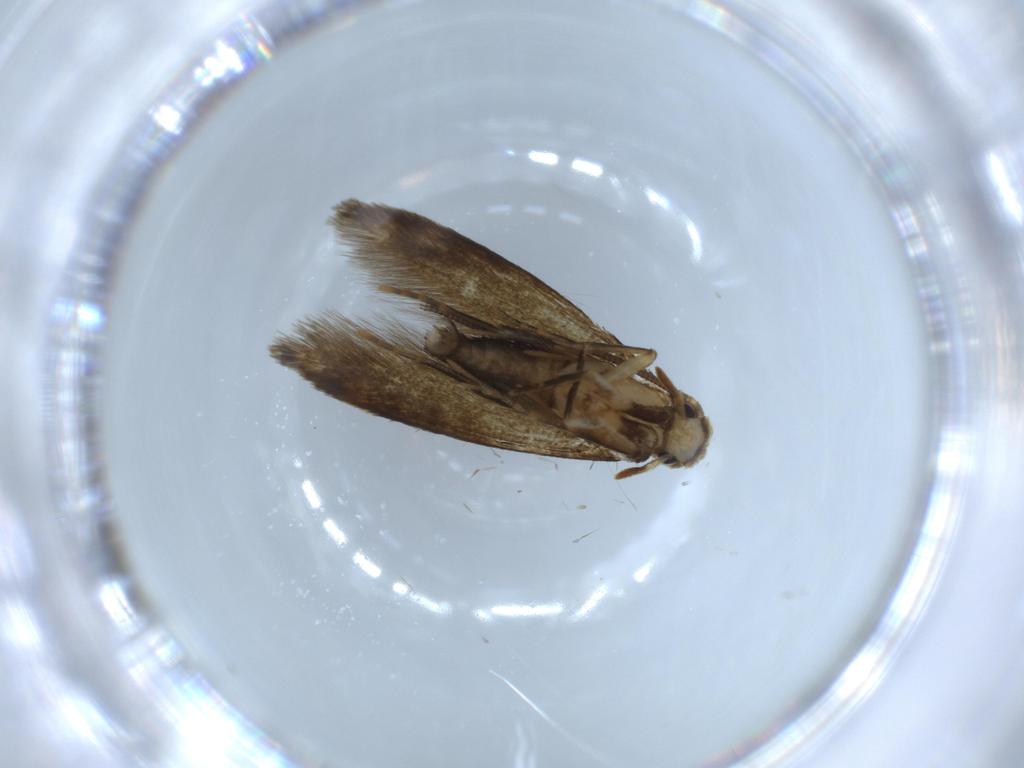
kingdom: Animalia
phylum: Arthropoda
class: Insecta
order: Lepidoptera
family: Tineidae
